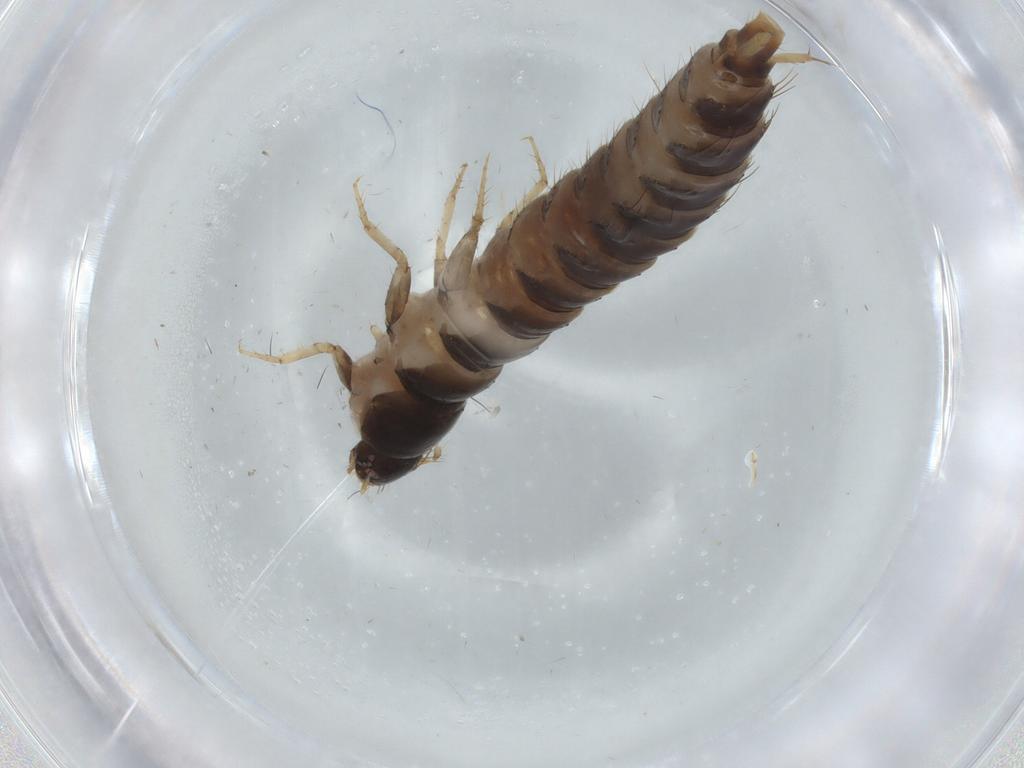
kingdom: Animalia
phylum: Arthropoda
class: Insecta
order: Coleoptera
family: Staphylinidae
